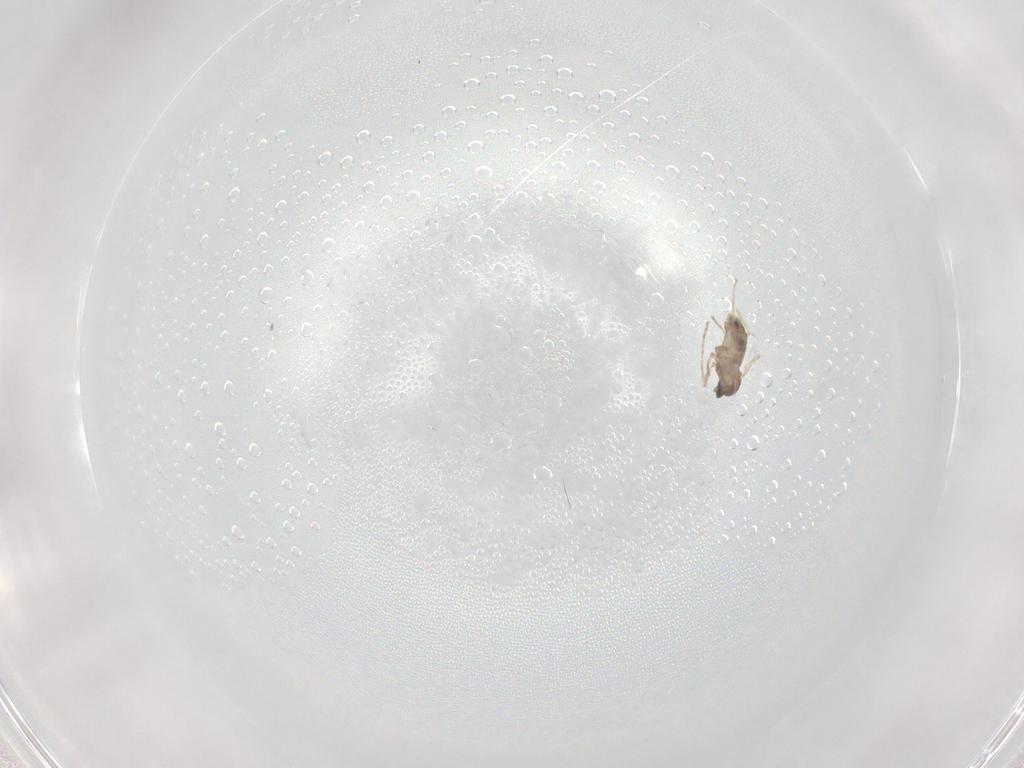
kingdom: Animalia
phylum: Arthropoda
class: Insecta
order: Diptera
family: Cecidomyiidae
